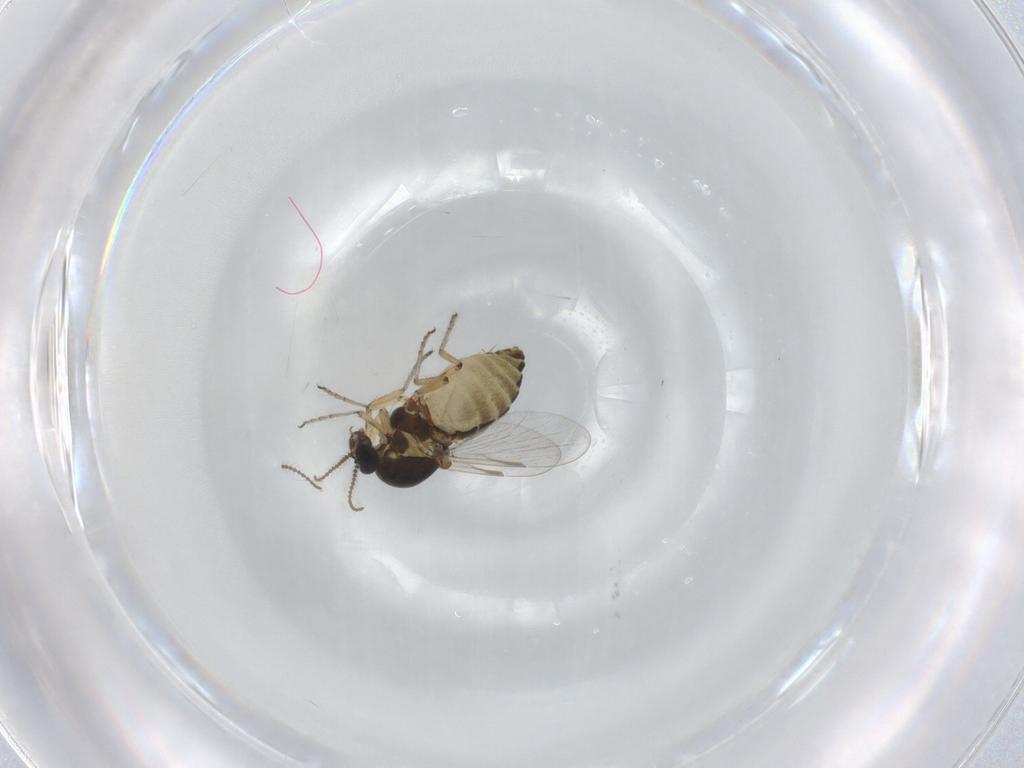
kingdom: Animalia
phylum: Arthropoda
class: Insecta
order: Diptera
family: Ceratopogonidae
